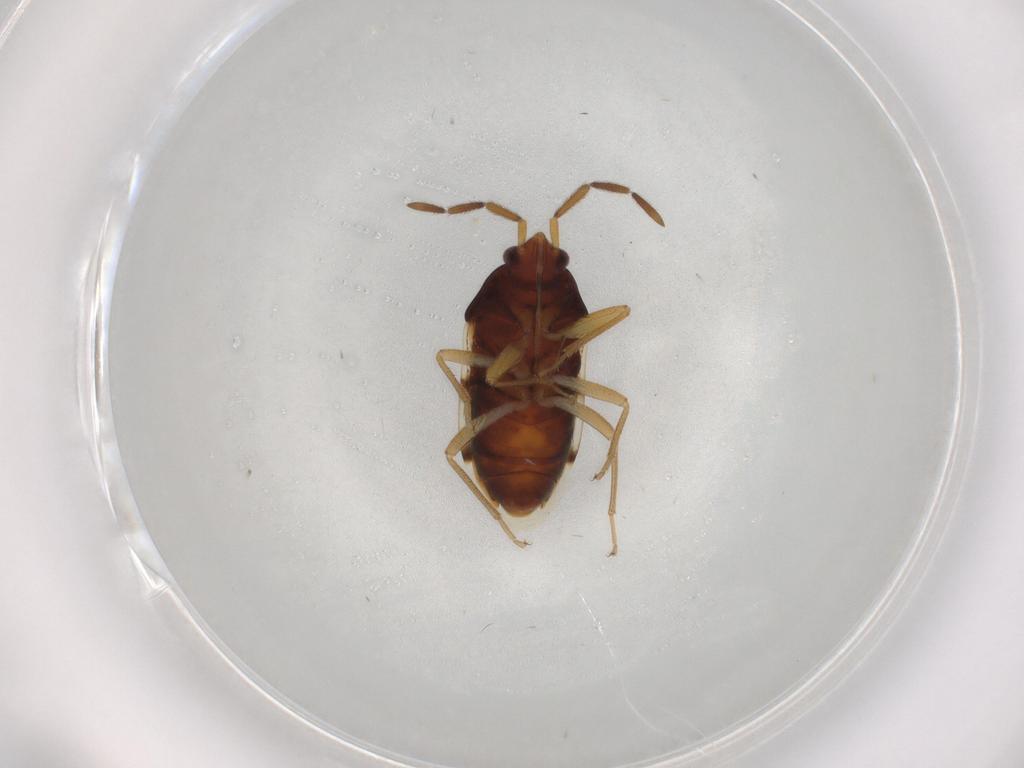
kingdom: Animalia
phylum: Arthropoda
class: Insecta
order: Hemiptera
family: Rhyparochromidae
